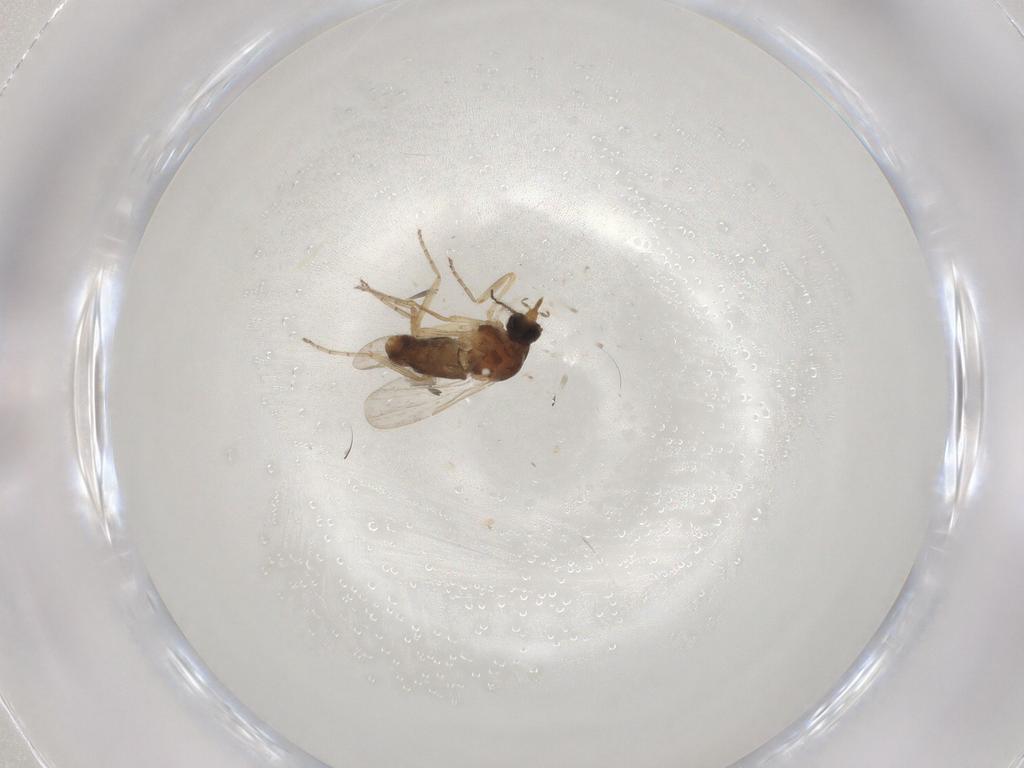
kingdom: Animalia
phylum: Arthropoda
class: Insecta
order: Diptera
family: Ceratopogonidae
